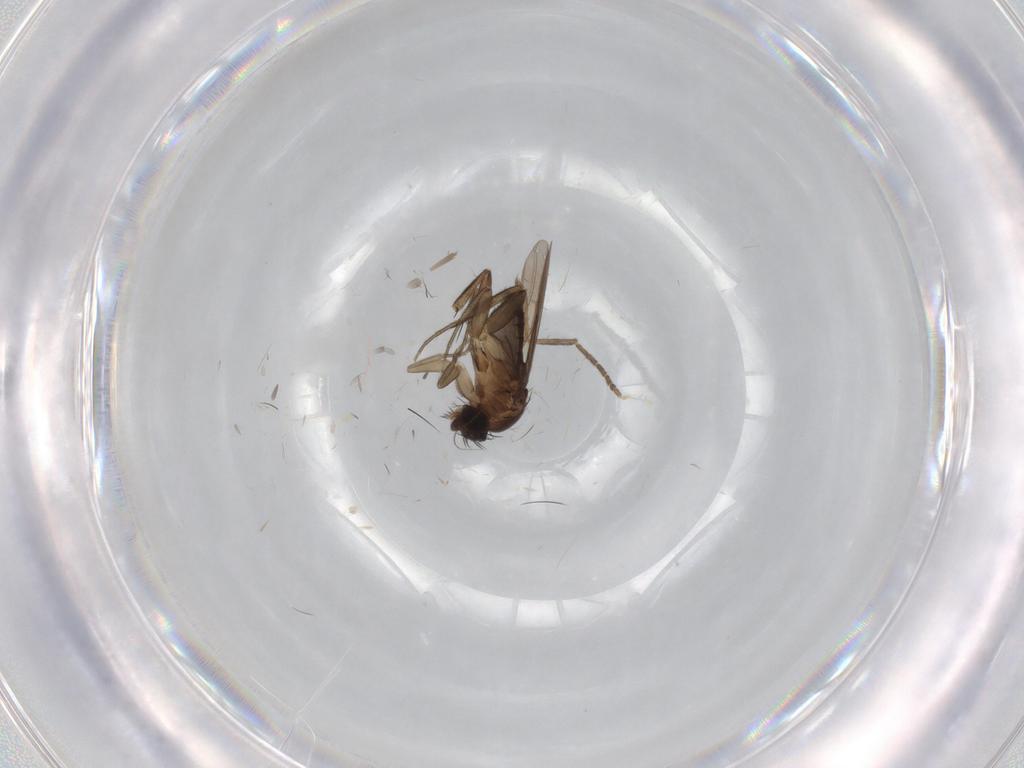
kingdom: Animalia
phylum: Arthropoda
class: Insecta
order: Diptera
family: Phoridae
